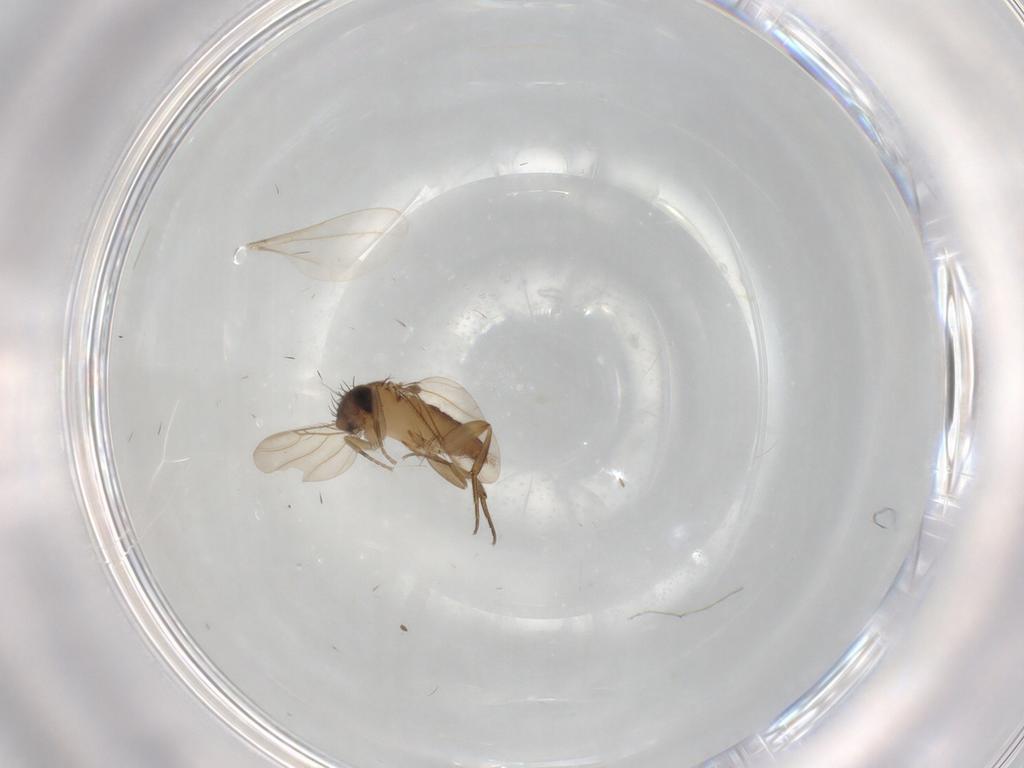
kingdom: Animalia
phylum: Arthropoda
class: Insecta
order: Diptera
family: Phoridae
